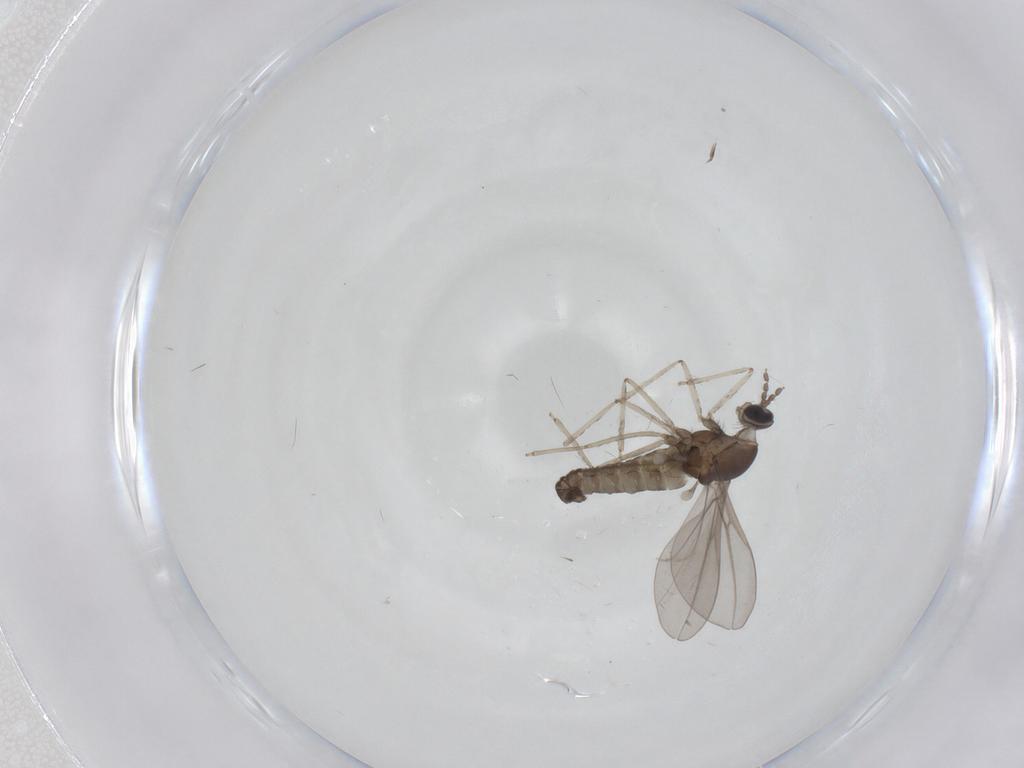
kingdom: Animalia
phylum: Arthropoda
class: Insecta
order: Diptera
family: Cecidomyiidae
